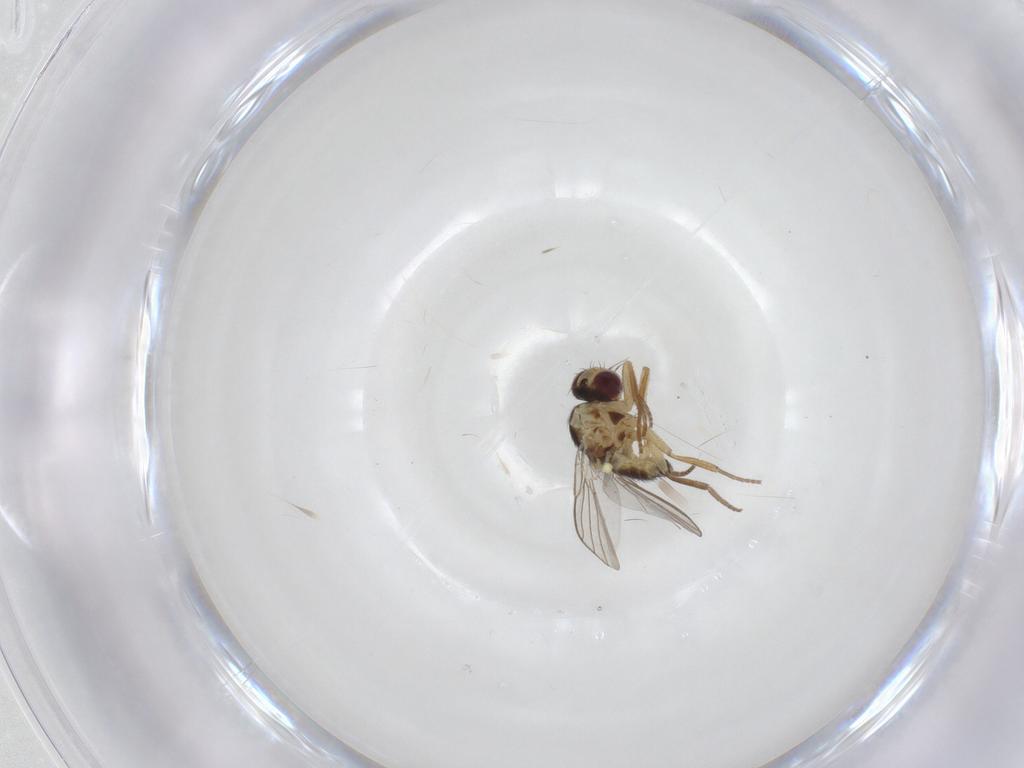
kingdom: Animalia
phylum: Arthropoda
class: Insecta
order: Diptera
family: Agromyzidae
